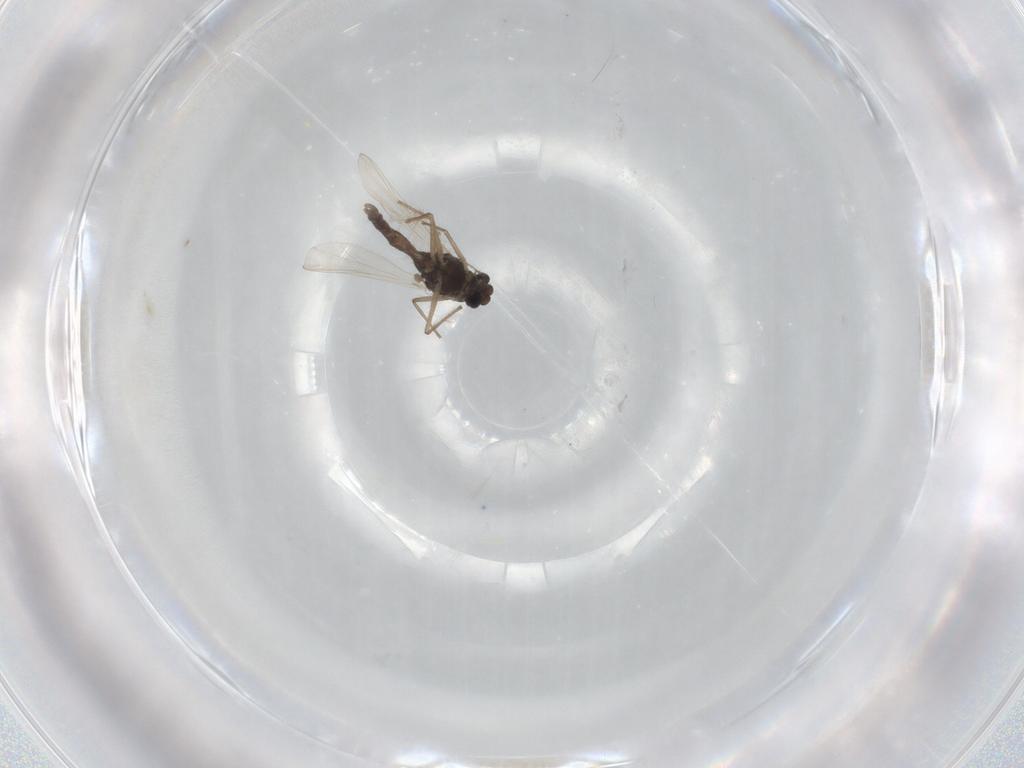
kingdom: Animalia
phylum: Arthropoda
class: Insecta
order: Diptera
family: Chironomidae
